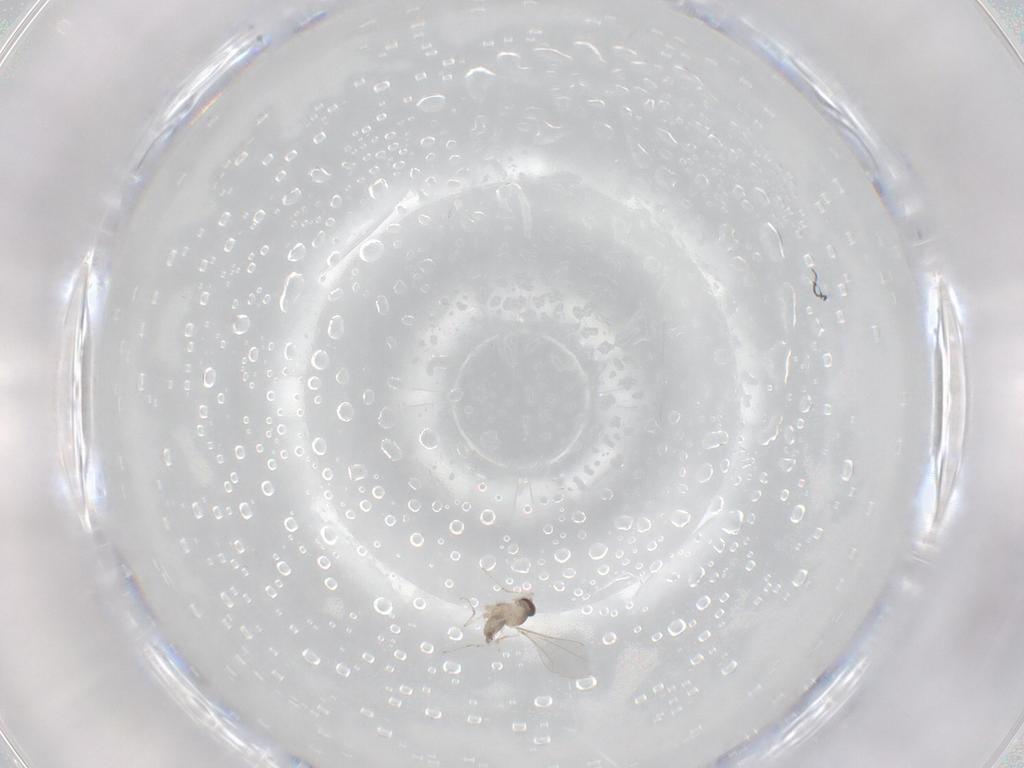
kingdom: Animalia
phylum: Arthropoda
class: Insecta
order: Diptera
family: Cecidomyiidae
